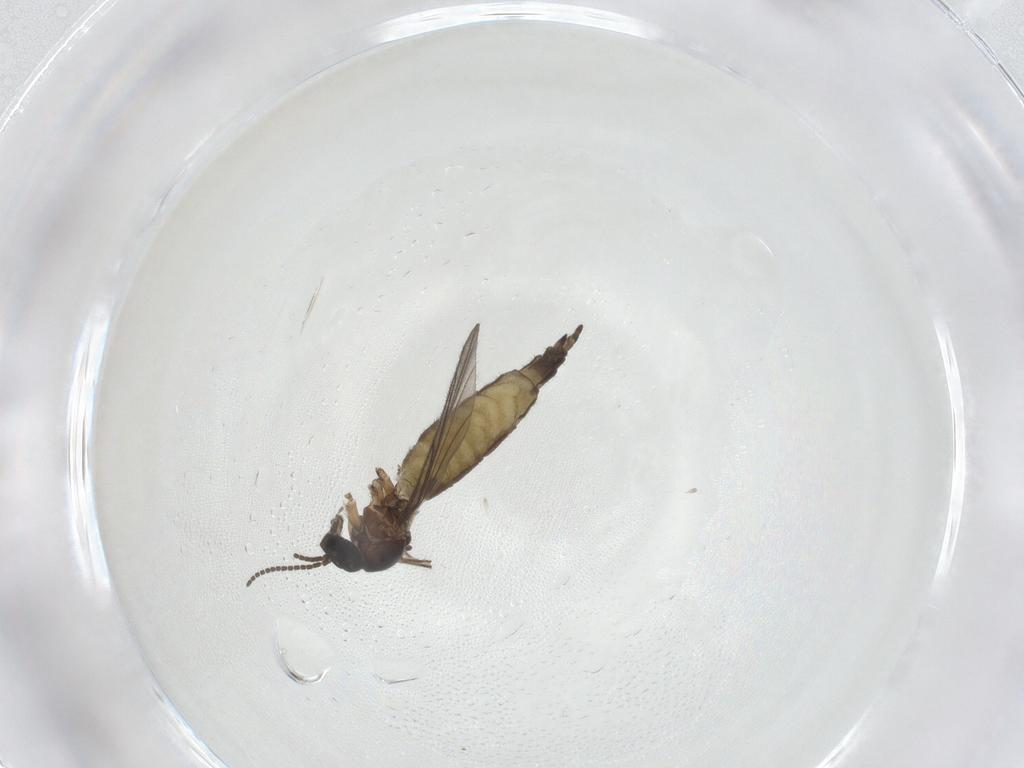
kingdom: Animalia
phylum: Arthropoda
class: Insecta
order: Diptera
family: Sciaridae
